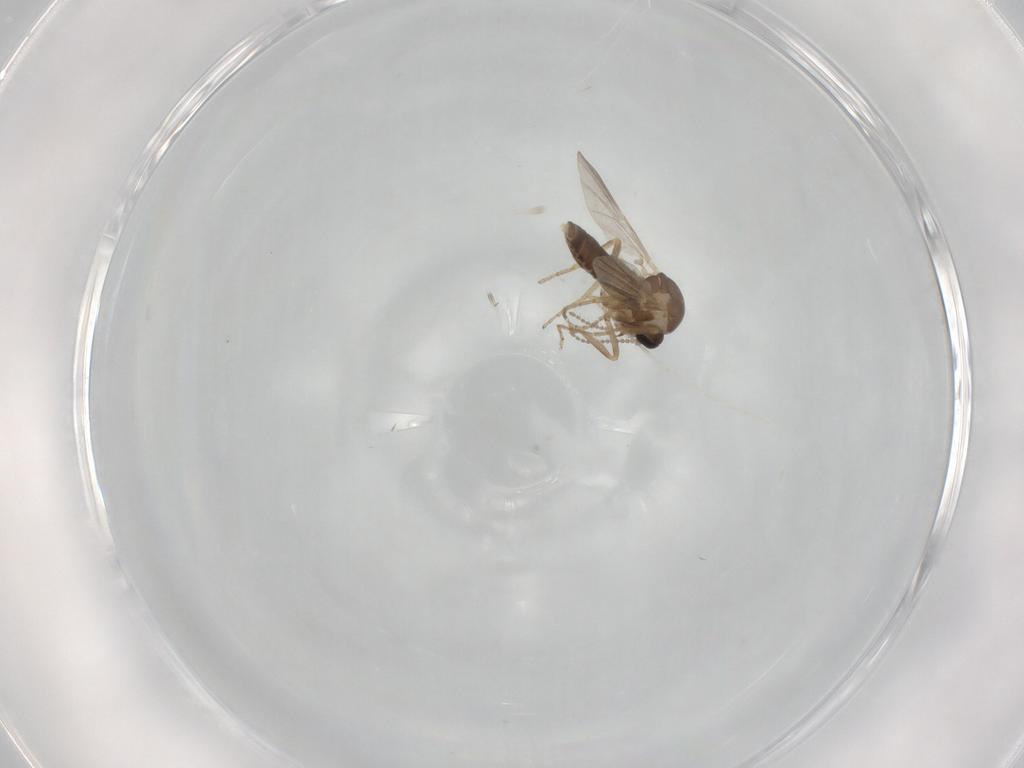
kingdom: Animalia
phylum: Arthropoda
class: Insecta
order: Diptera
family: Ceratopogonidae
